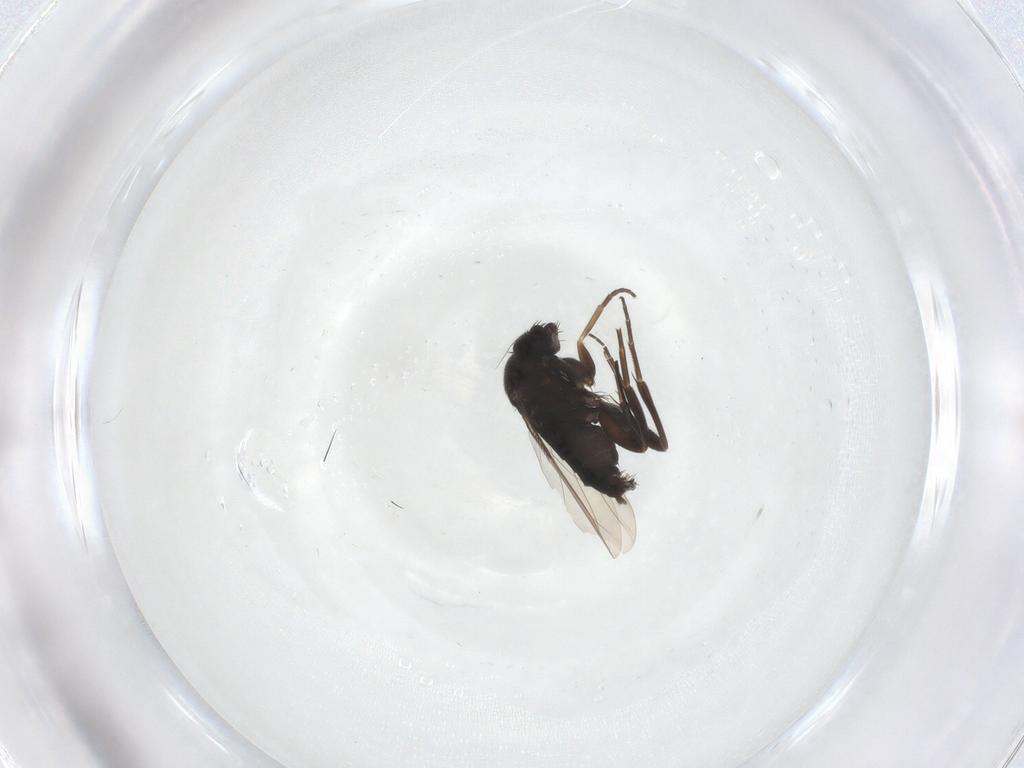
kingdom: Animalia
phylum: Arthropoda
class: Insecta
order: Diptera
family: Phoridae
